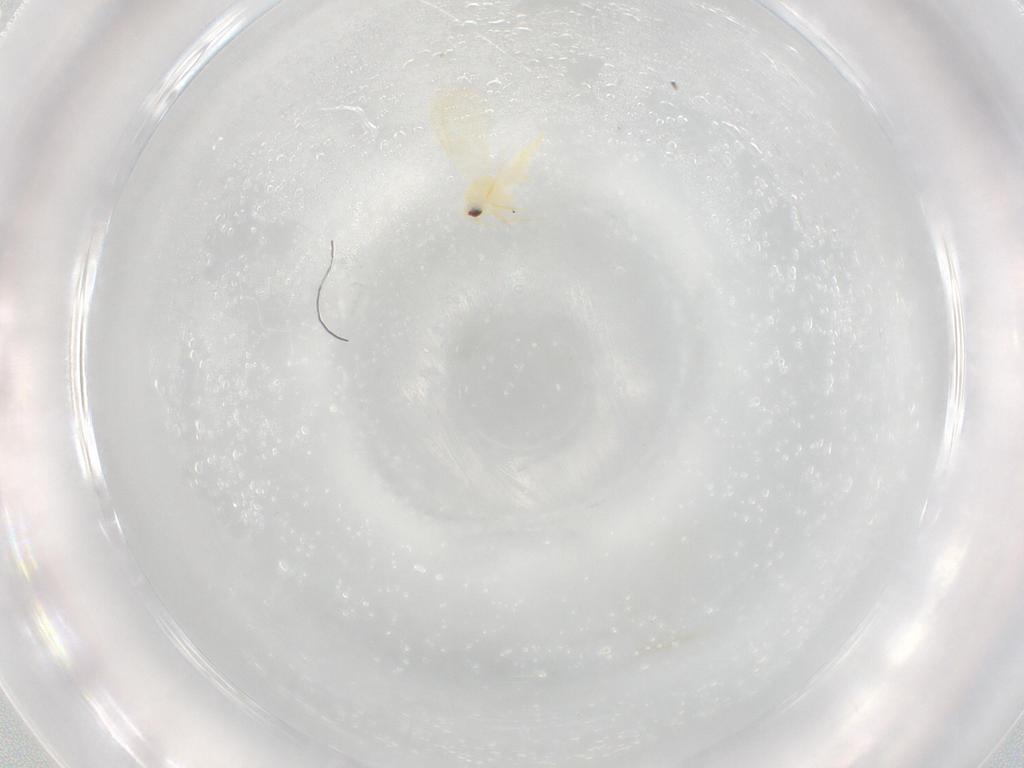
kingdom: Animalia
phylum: Arthropoda
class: Insecta
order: Hemiptera
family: Aleyrodidae
